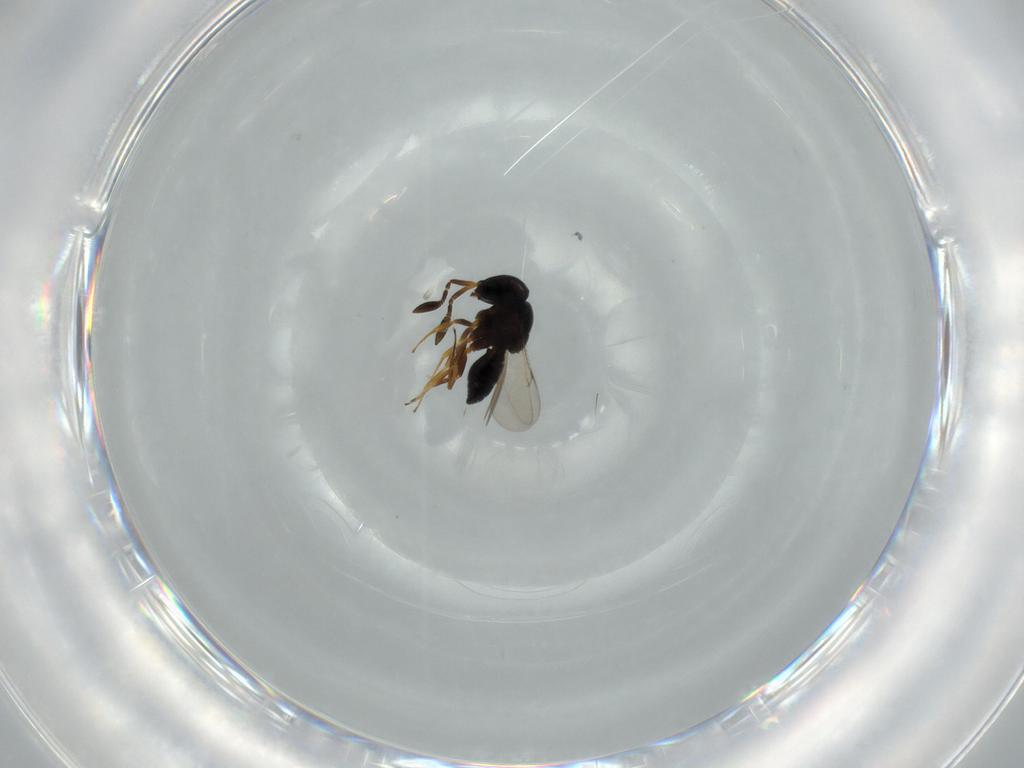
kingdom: Animalia
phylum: Arthropoda
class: Insecta
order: Hymenoptera
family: Scelionidae
